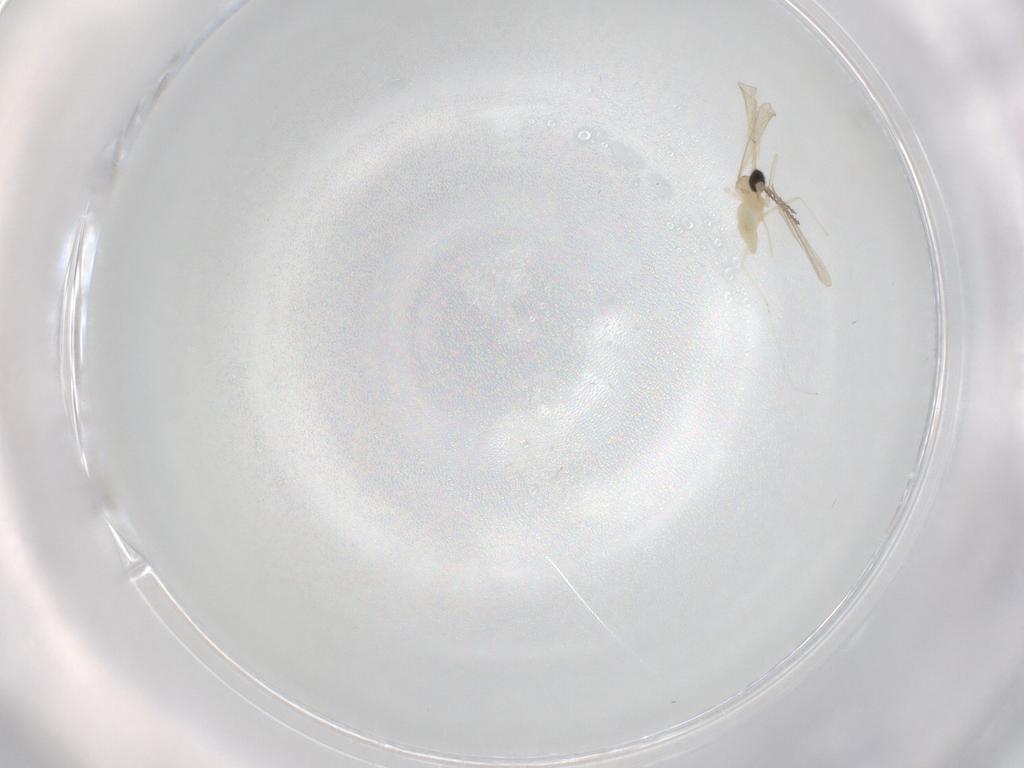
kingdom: Animalia
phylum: Arthropoda
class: Insecta
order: Diptera
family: Cecidomyiidae
